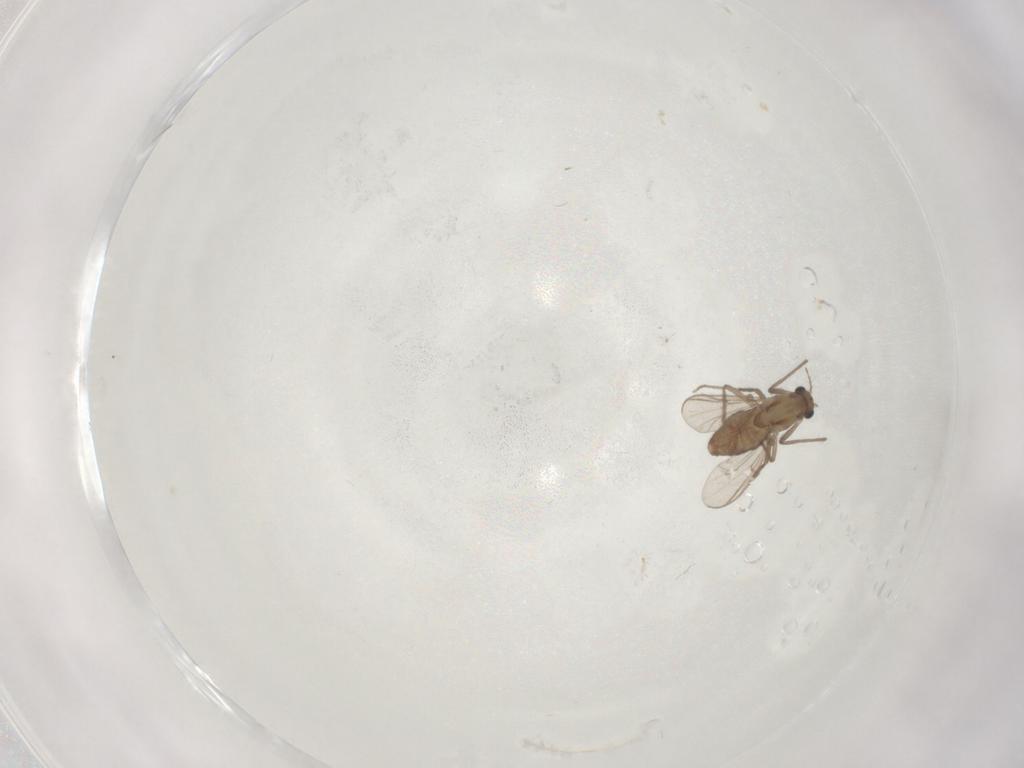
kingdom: Animalia
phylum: Arthropoda
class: Insecta
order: Diptera
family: Chironomidae
